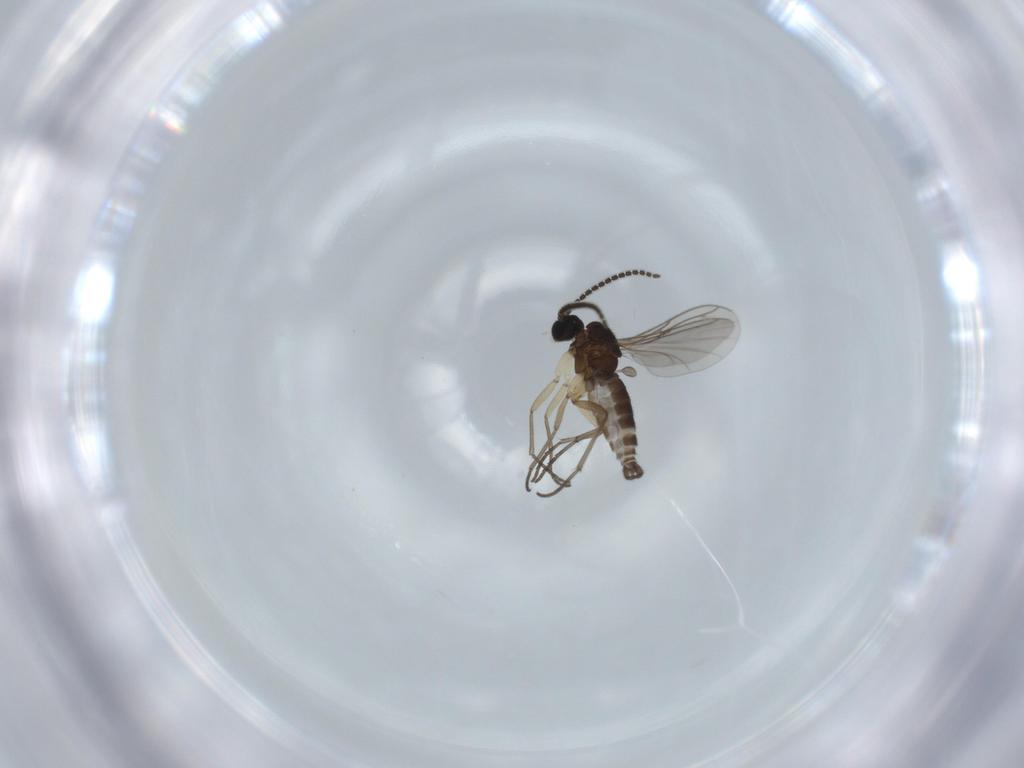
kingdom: Animalia
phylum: Arthropoda
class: Insecta
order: Diptera
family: Sciaridae
